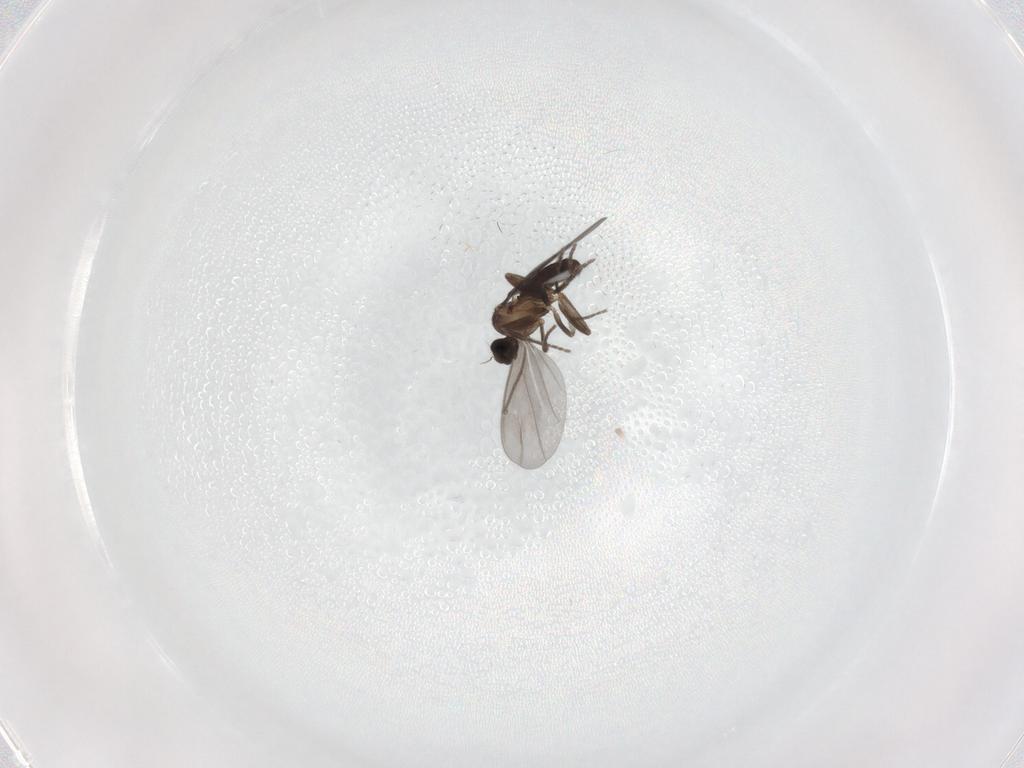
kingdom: Animalia
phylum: Arthropoda
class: Insecta
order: Diptera
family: Phoridae
